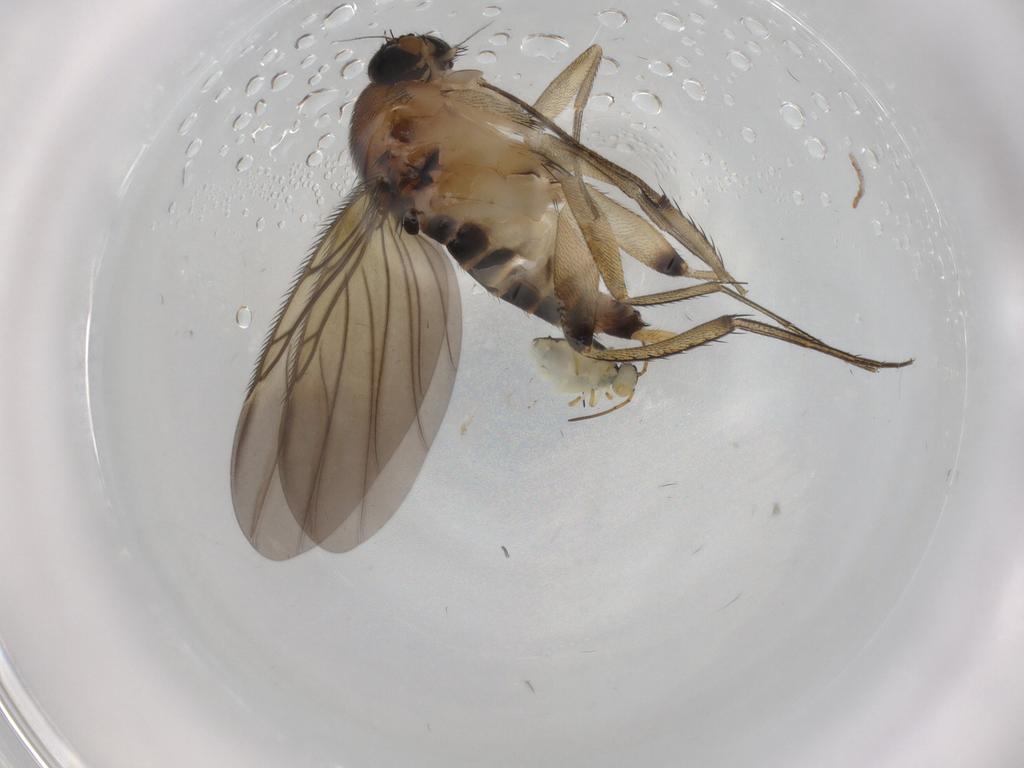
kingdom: Animalia
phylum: Arthropoda
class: Insecta
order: Diptera
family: Phoridae
